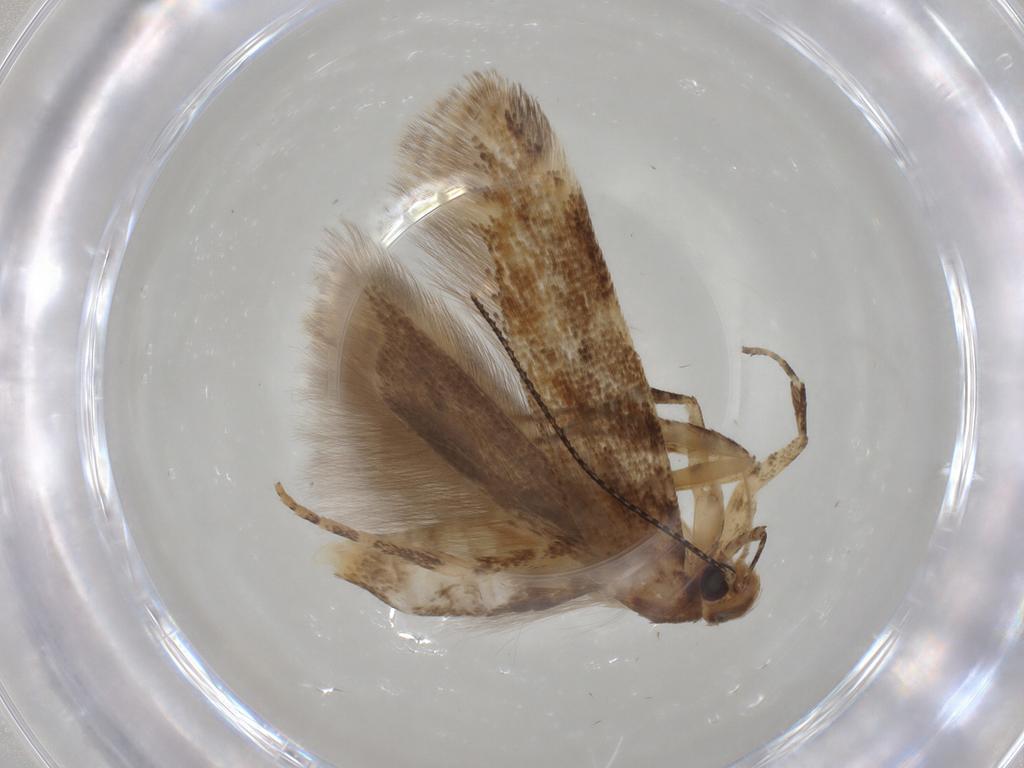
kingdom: Animalia
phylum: Arthropoda
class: Insecta
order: Lepidoptera
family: Gelechiidae
